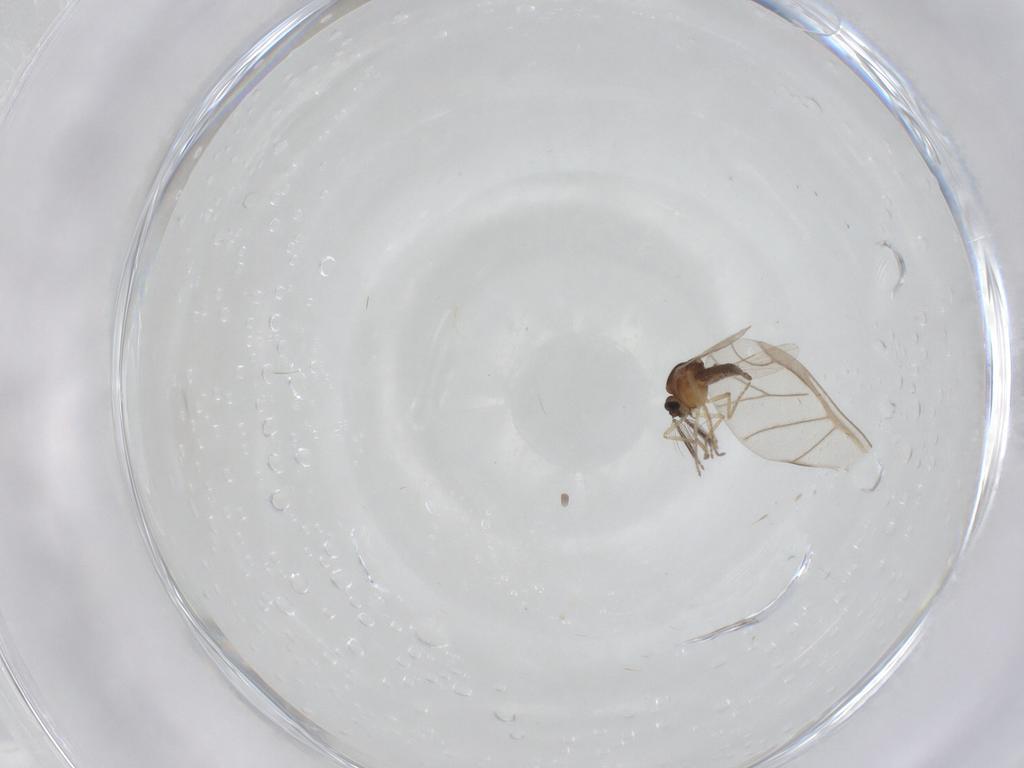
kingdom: Animalia
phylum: Arthropoda
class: Insecta
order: Diptera
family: Ceratopogonidae
